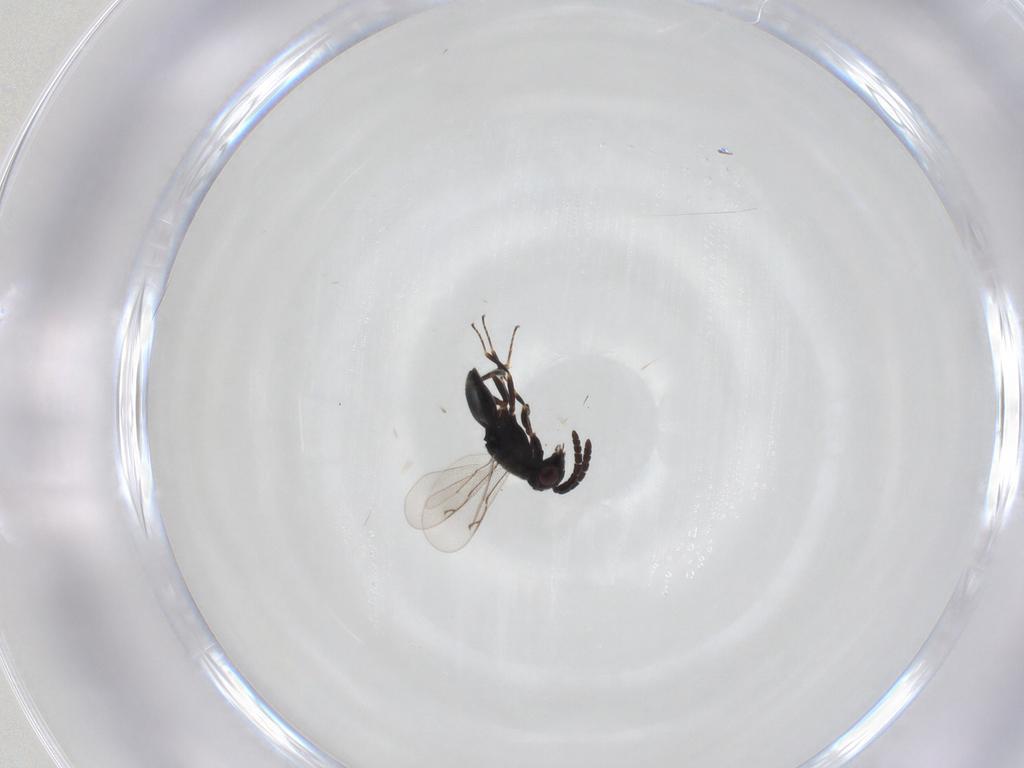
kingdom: Animalia
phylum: Arthropoda
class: Insecta
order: Hymenoptera
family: Eunotidae
